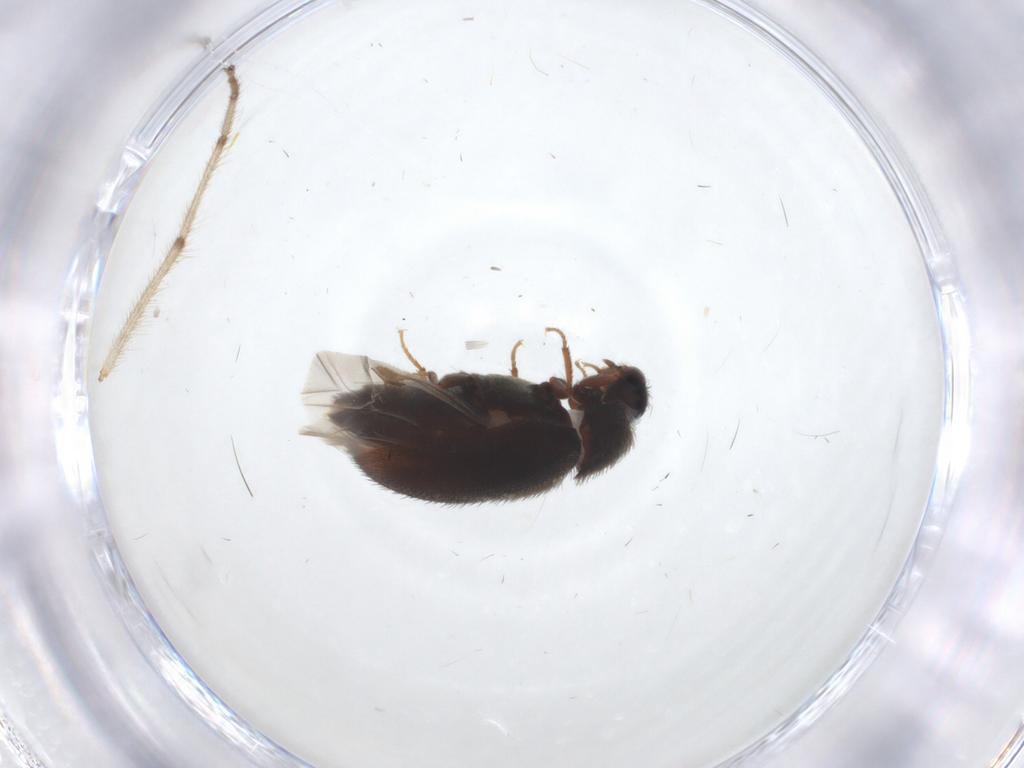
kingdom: Animalia
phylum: Arthropoda
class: Insecta
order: Coleoptera
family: Dermestidae
